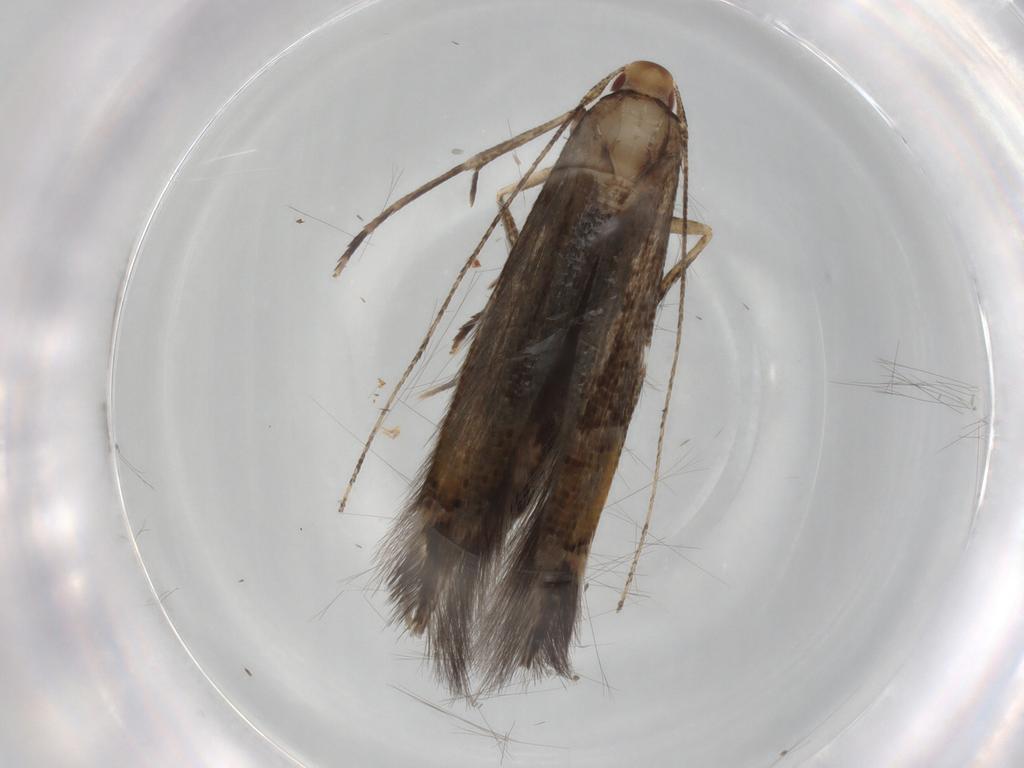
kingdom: Animalia
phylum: Arthropoda
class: Insecta
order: Lepidoptera
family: Cosmopterigidae
